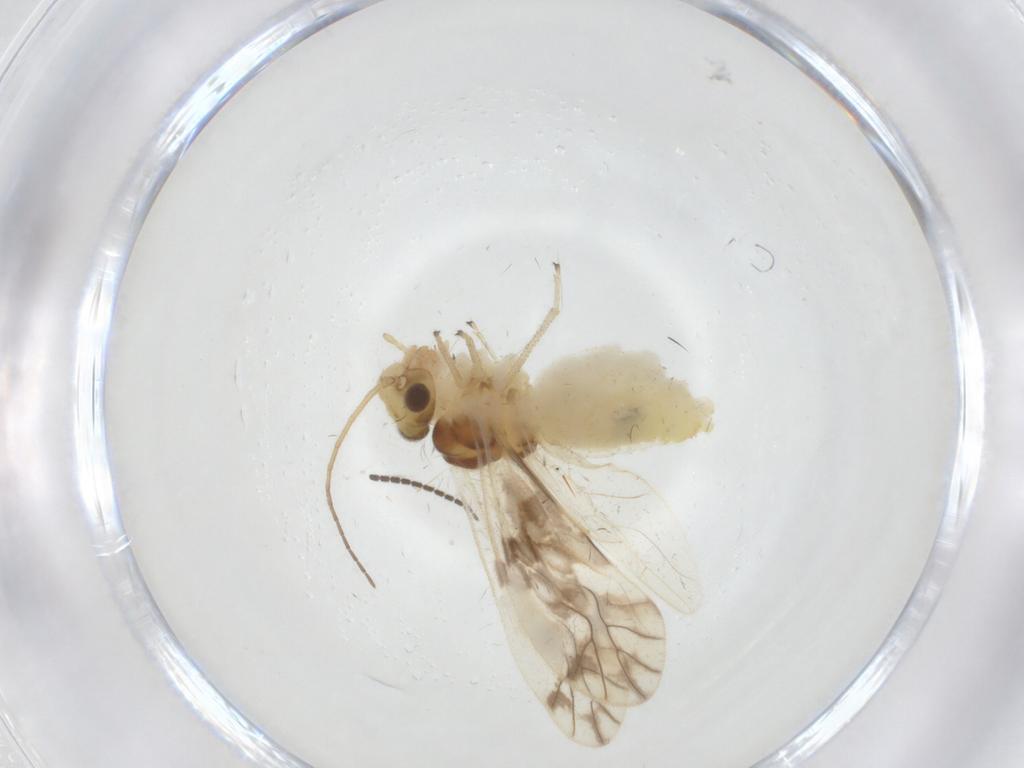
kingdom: Animalia
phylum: Arthropoda
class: Insecta
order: Psocodea
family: Caeciliusidae
